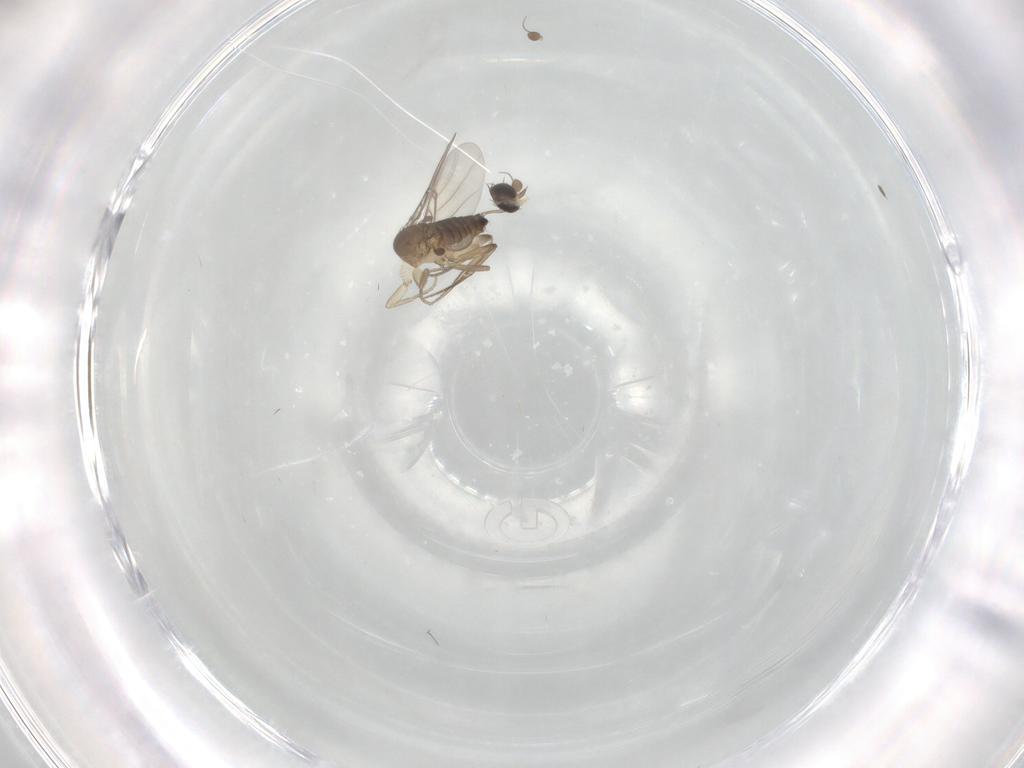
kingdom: Animalia
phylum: Arthropoda
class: Insecta
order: Diptera
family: Phoridae
